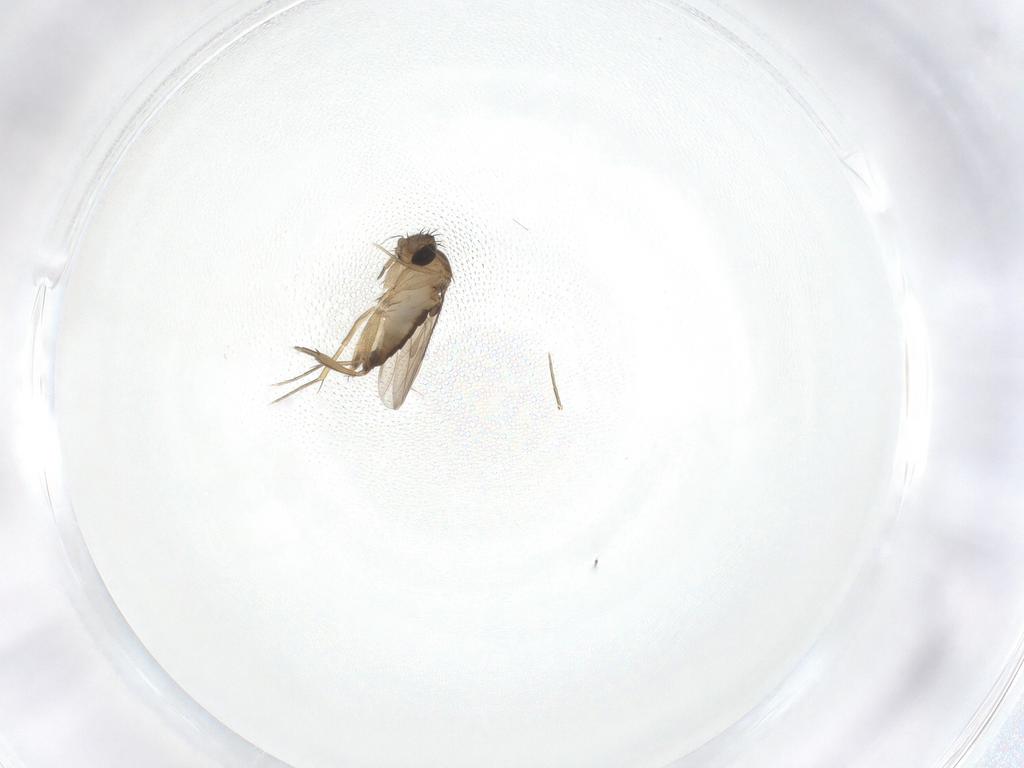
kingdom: Animalia
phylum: Arthropoda
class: Insecta
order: Diptera
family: Phoridae
